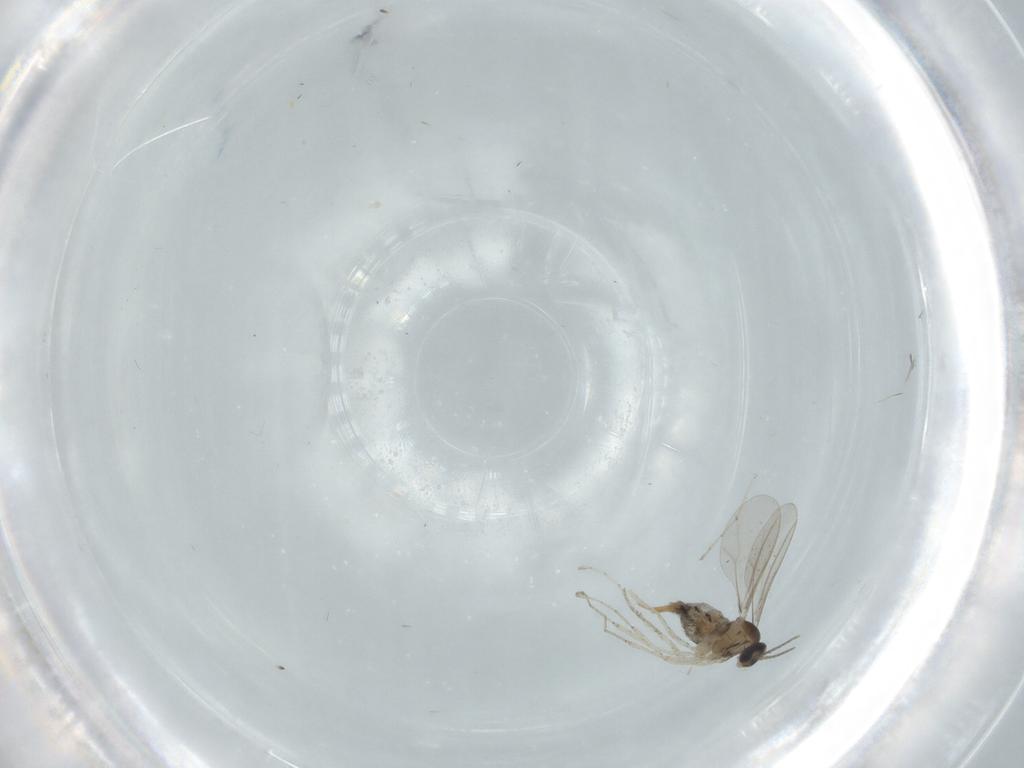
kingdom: Animalia
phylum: Arthropoda
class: Insecta
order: Diptera
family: Cecidomyiidae
